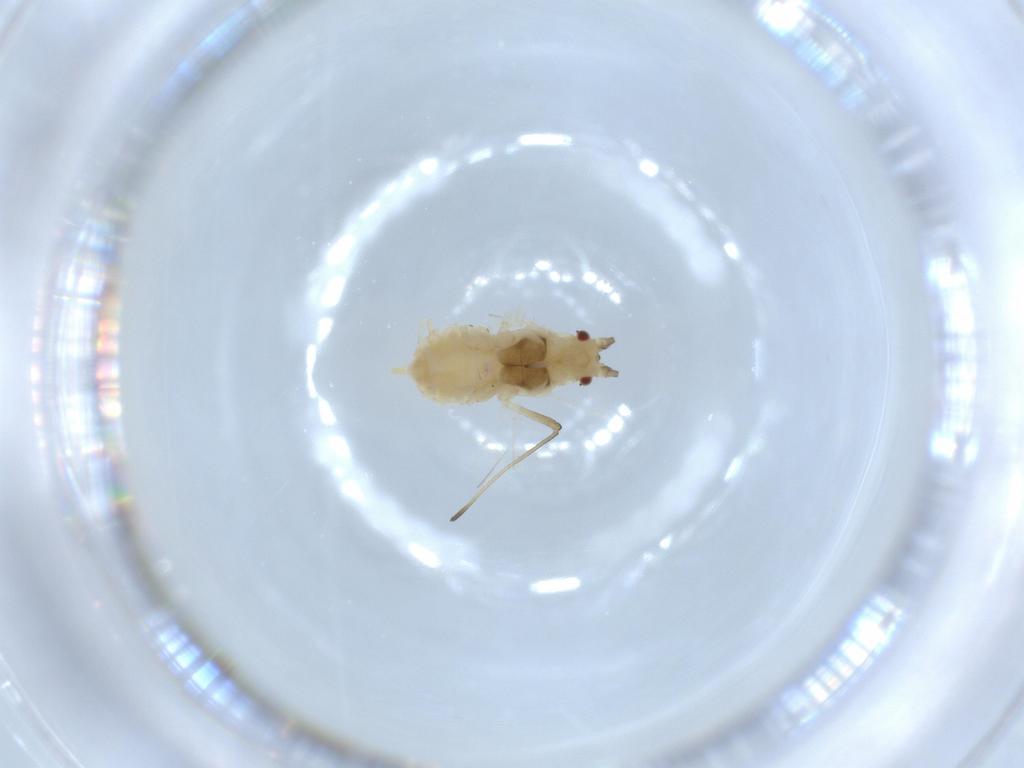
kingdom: Animalia
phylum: Arthropoda
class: Insecta
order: Hemiptera
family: Aphididae
